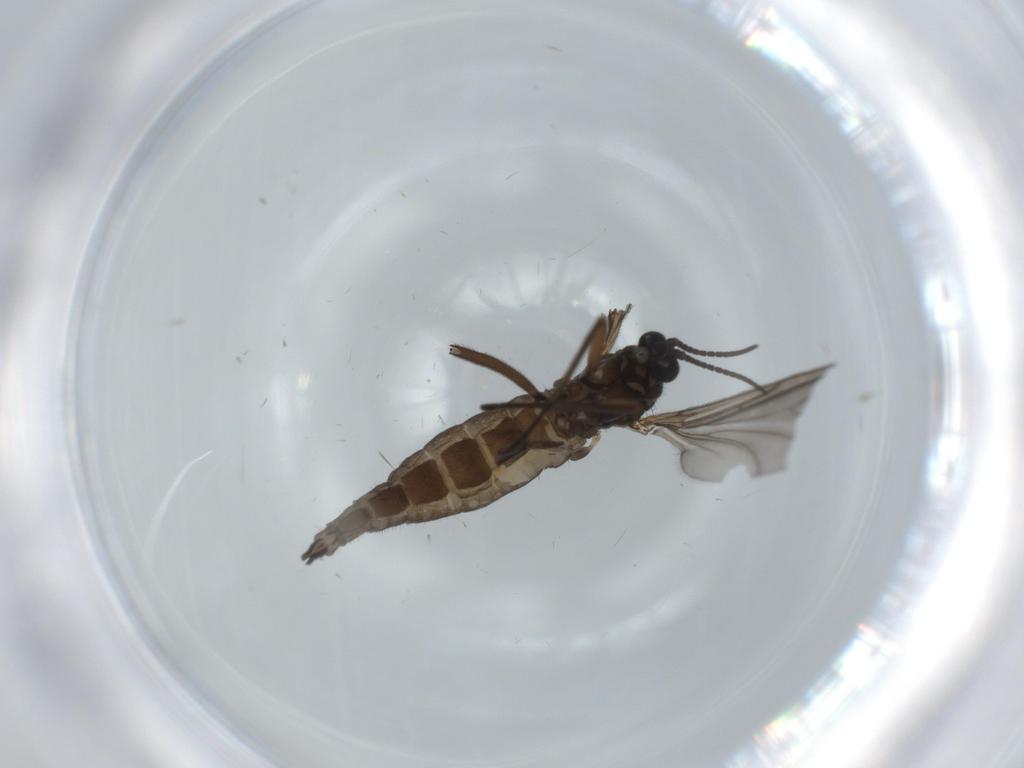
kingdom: Animalia
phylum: Arthropoda
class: Insecta
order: Diptera
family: Sciaridae
